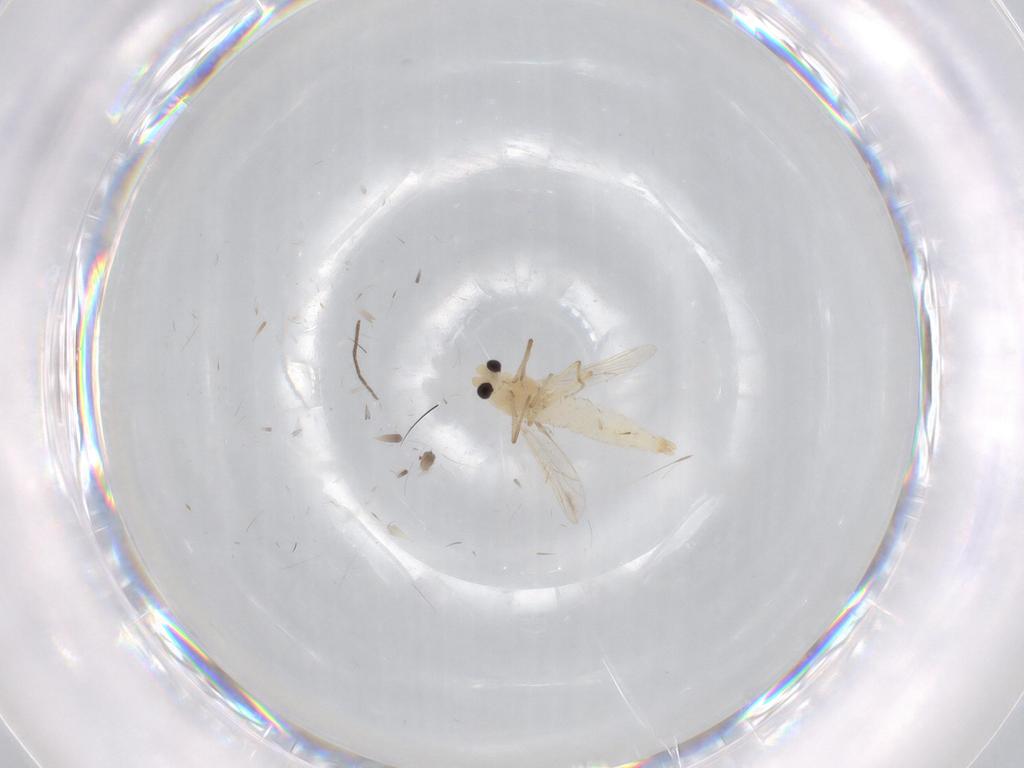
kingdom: Animalia
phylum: Arthropoda
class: Insecta
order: Diptera
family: Chironomidae
